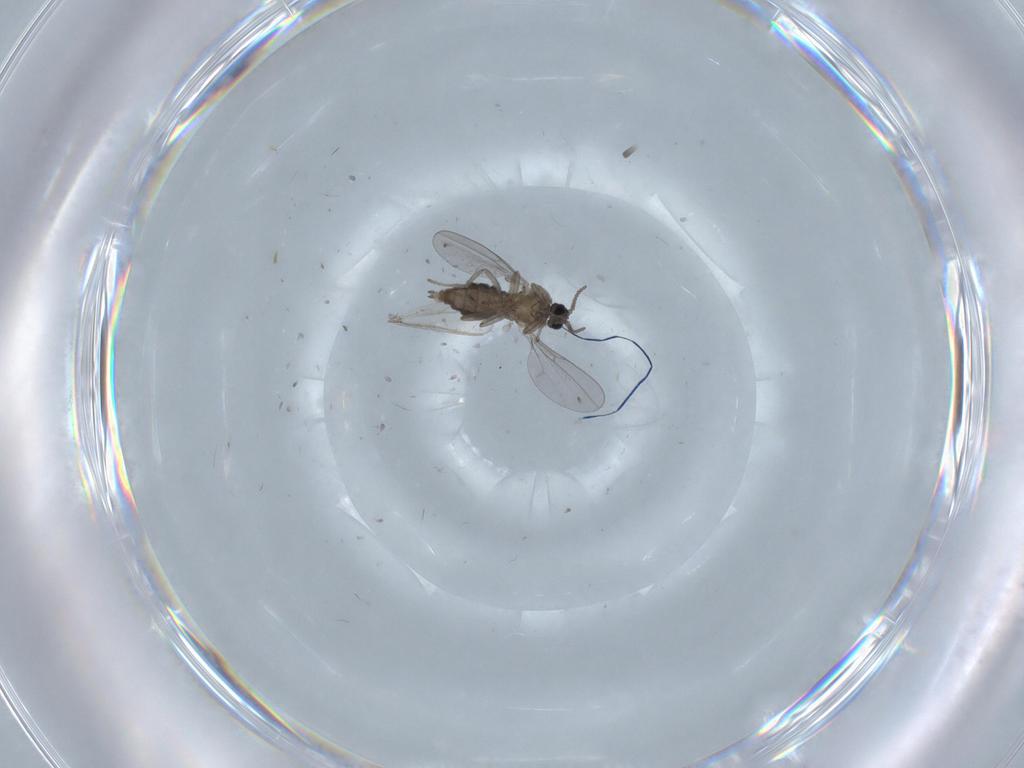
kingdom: Animalia
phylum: Arthropoda
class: Insecta
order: Diptera
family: Chironomidae
